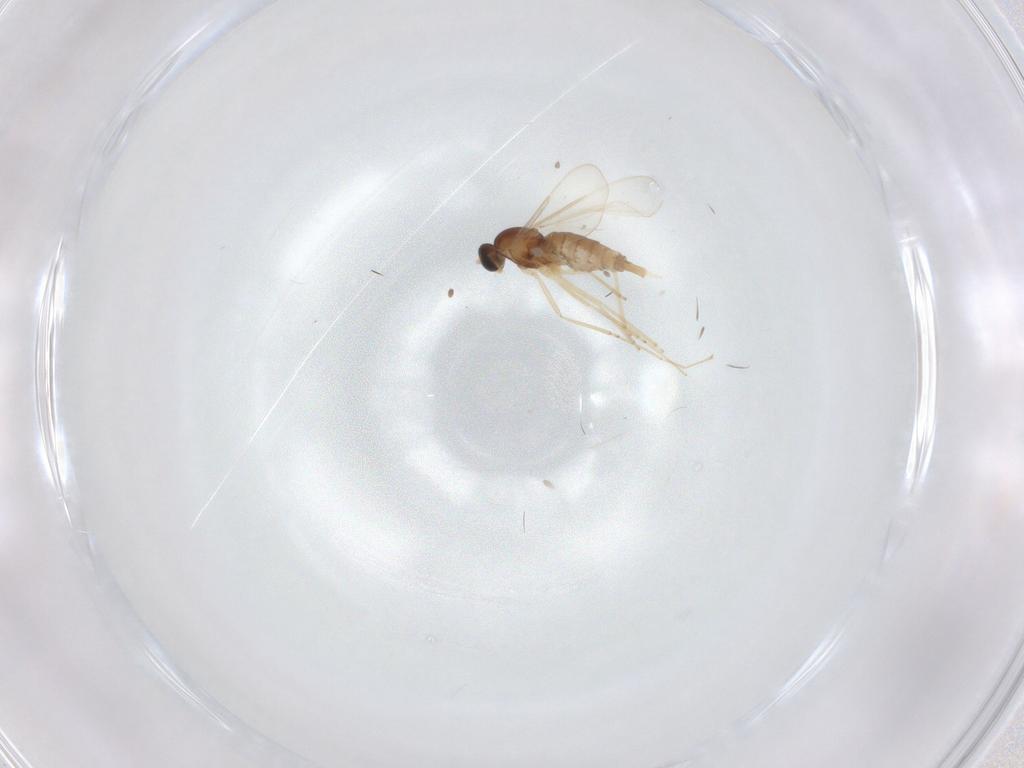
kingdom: Animalia
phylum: Arthropoda
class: Insecta
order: Diptera
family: Cecidomyiidae
